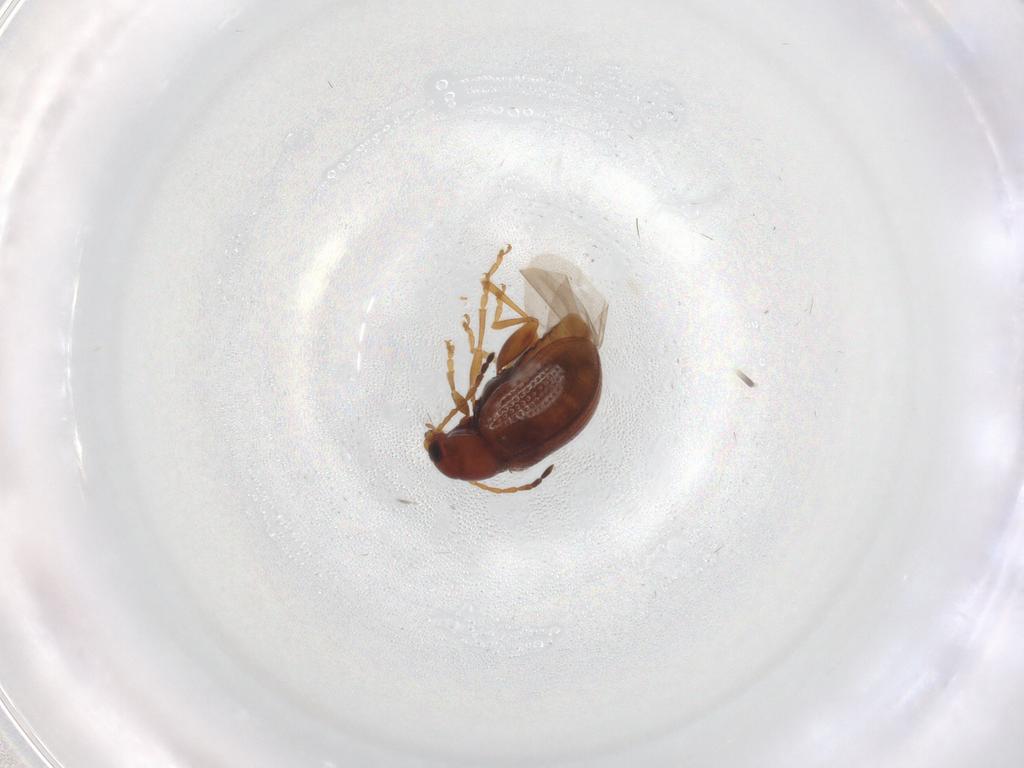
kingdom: Animalia
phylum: Arthropoda
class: Insecta
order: Coleoptera
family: Chrysomelidae
